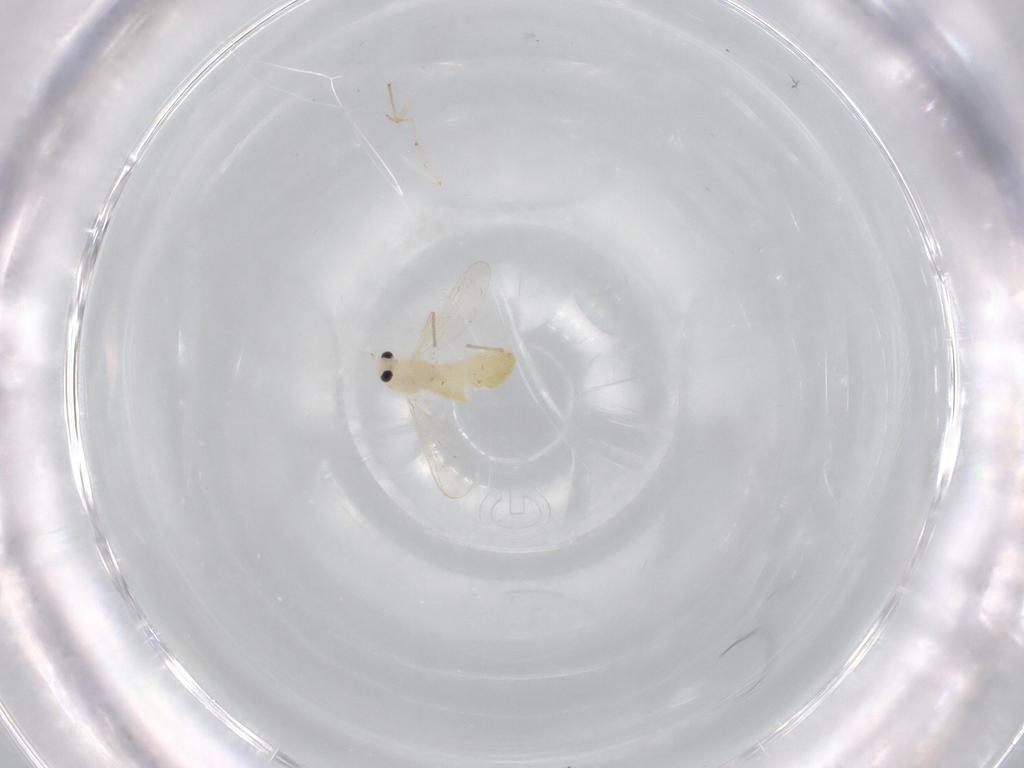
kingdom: Animalia
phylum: Arthropoda
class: Insecta
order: Diptera
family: Chironomidae
